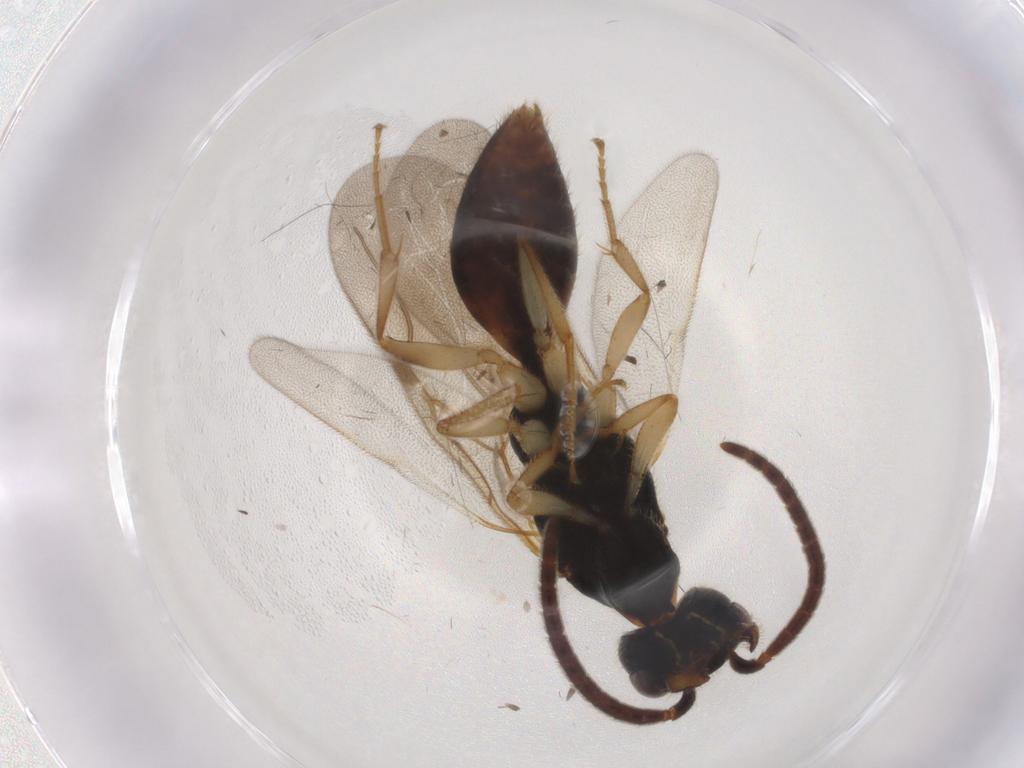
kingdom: Animalia
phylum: Arthropoda
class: Insecta
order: Hymenoptera
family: Bethylidae
